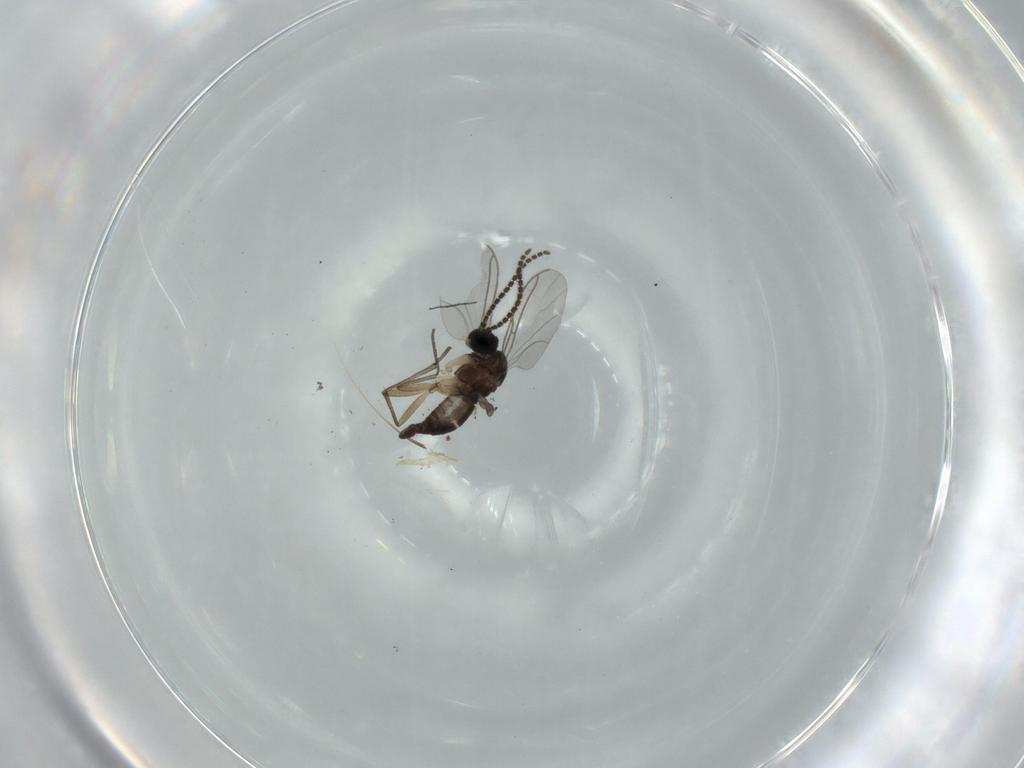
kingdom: Animalia
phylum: Arthropoda
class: Insecta
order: Diptera
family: Sciaridae
